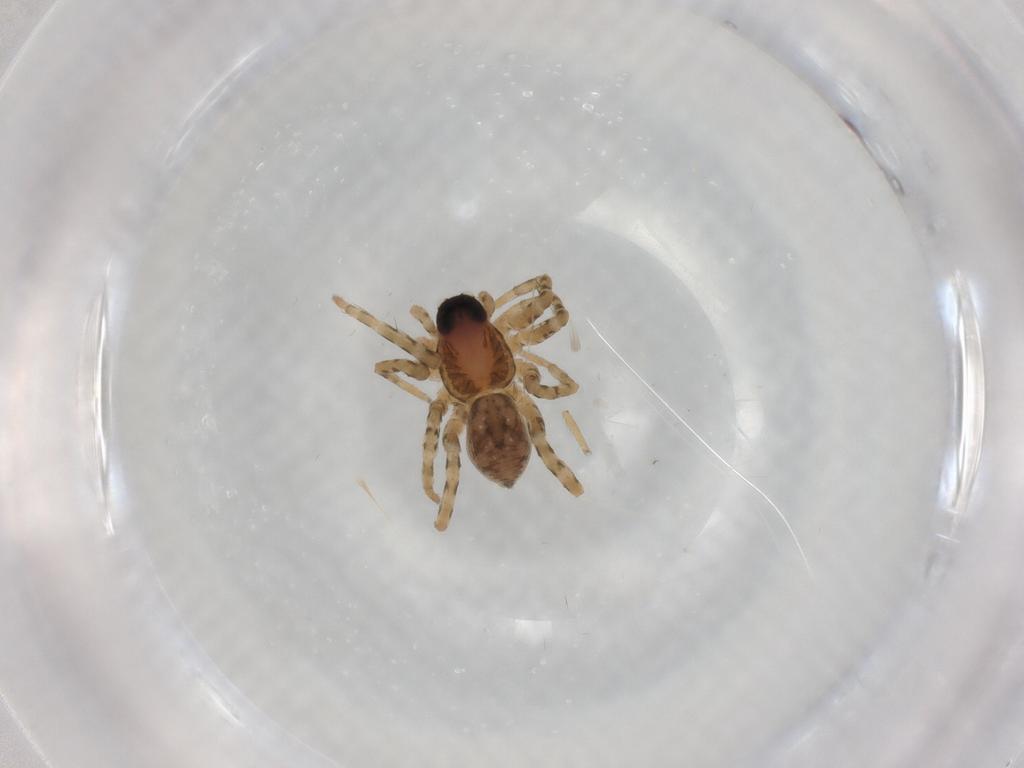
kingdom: Animalia
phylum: Arthropoda
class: Arachnida
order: Araneae
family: Lycosidae
